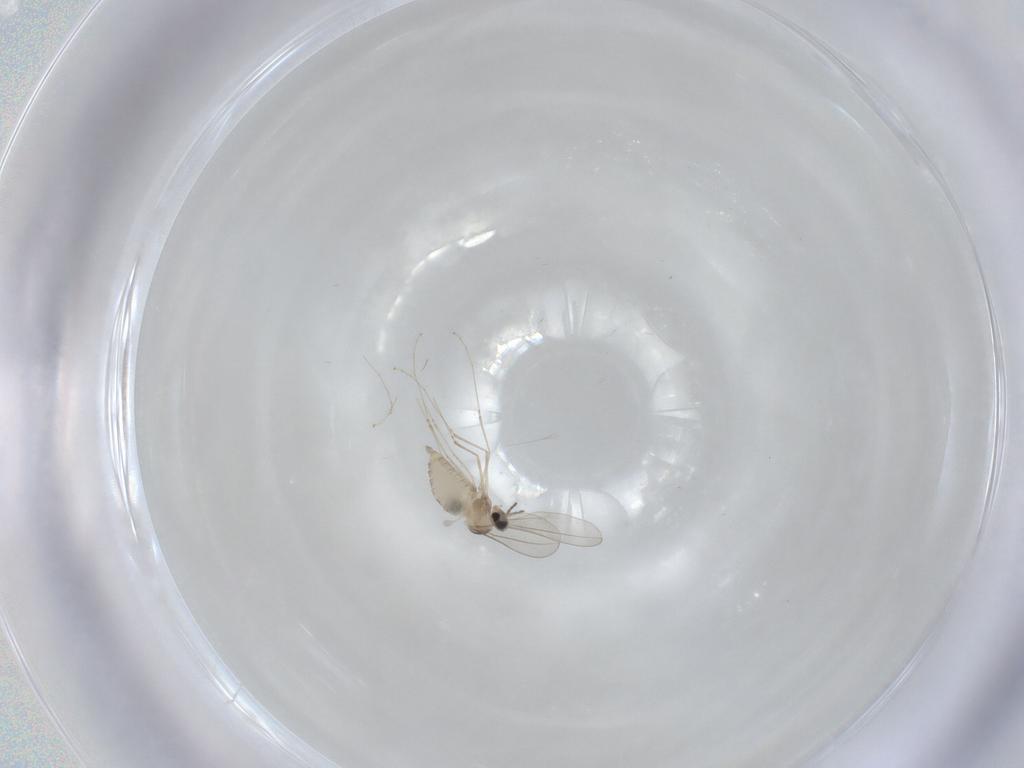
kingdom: Animalia
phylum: Arthropoda
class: Insecta
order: Diptera
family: Cecidomyiidae
